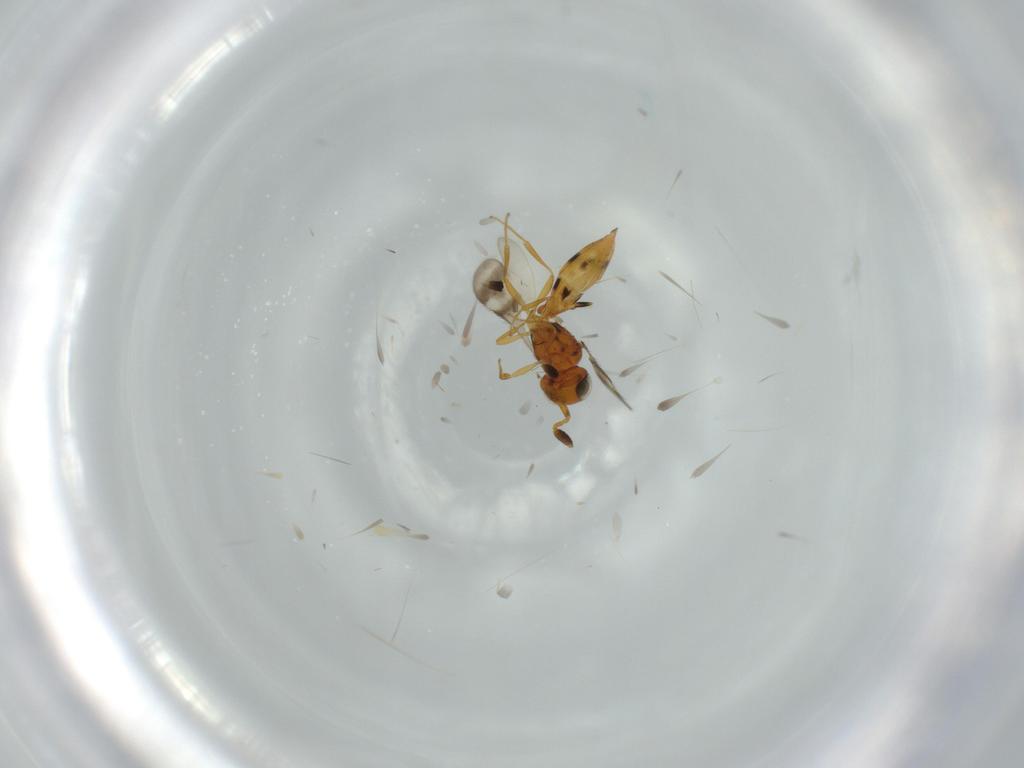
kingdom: Animalia
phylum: Arthropoda
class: Insecta
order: Hymenoptera
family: Scelionidae
